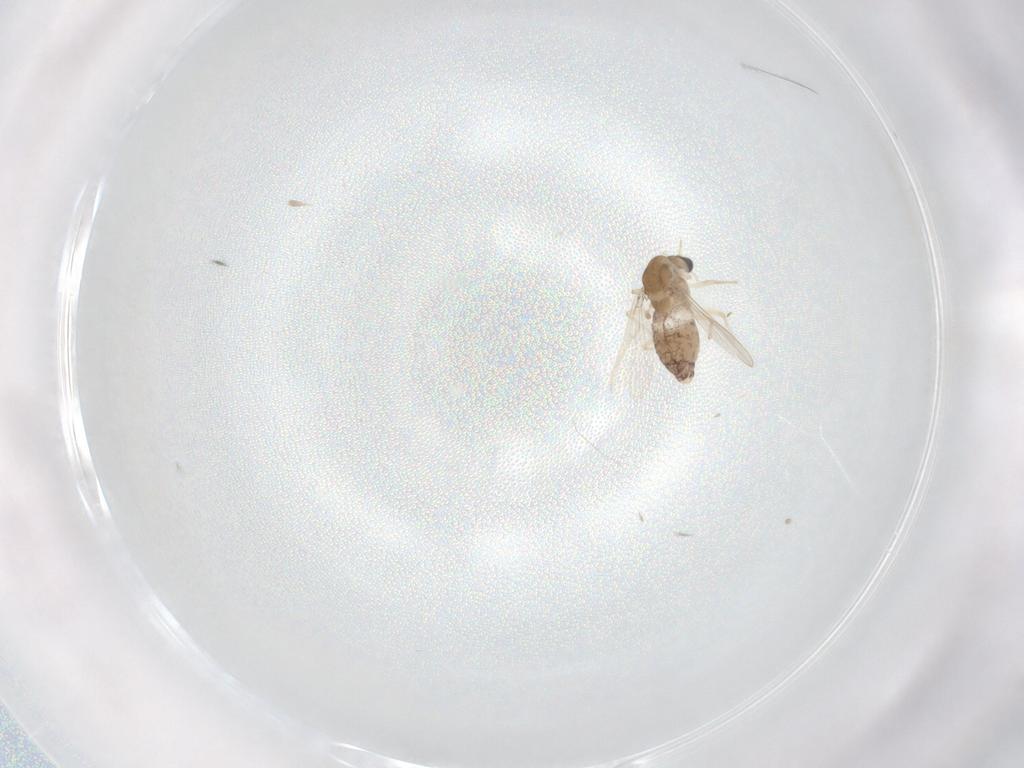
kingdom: Animalia
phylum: Arthropoda
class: Insecta
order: Diptera
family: Chironomidae
